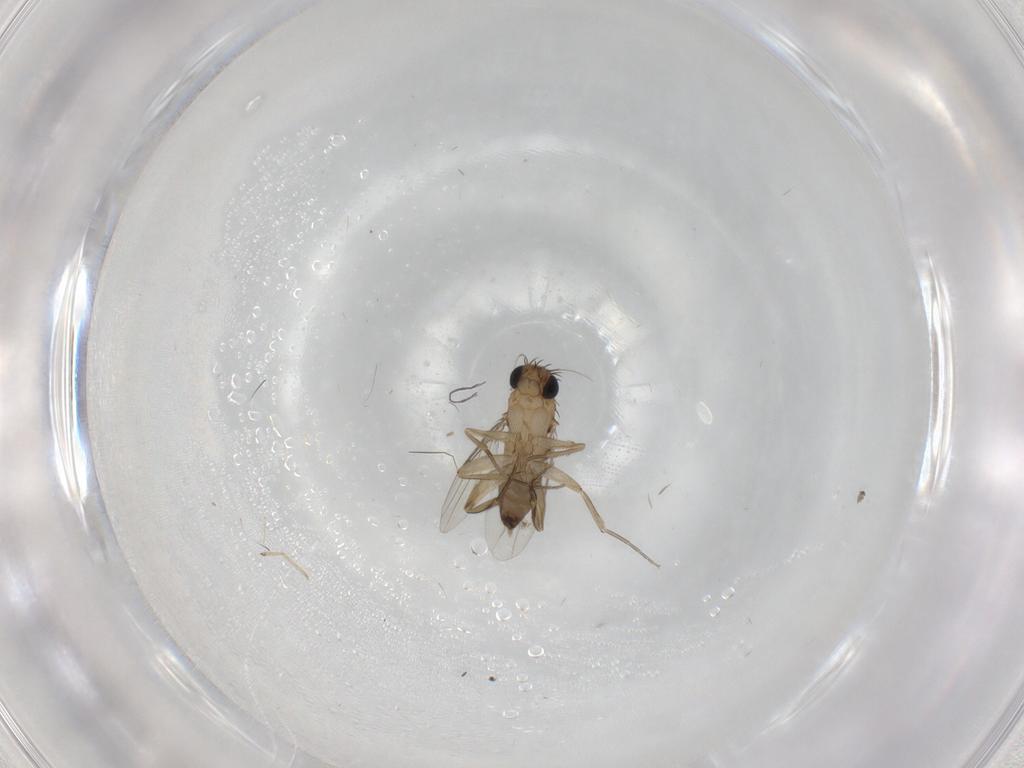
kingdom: Animalia
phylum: Arthropoda
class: Insecta
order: Diptera
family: Phoridae
